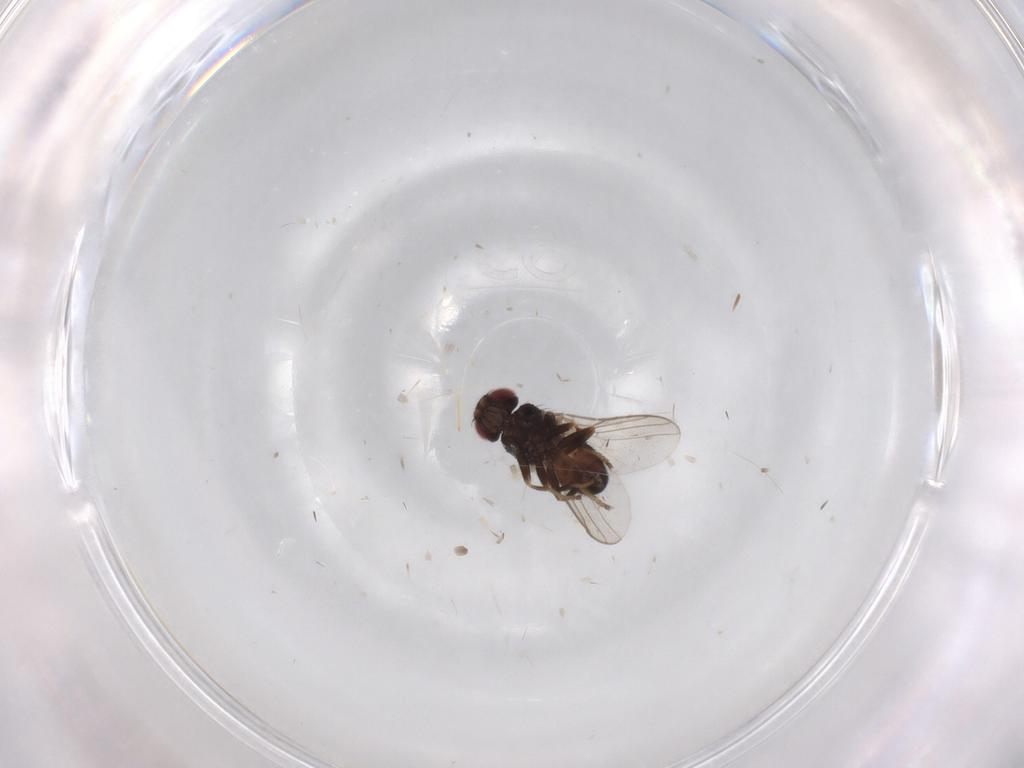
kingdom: Animalia
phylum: Arthropoda
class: Insecta
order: Diptera
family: Chloropidae
